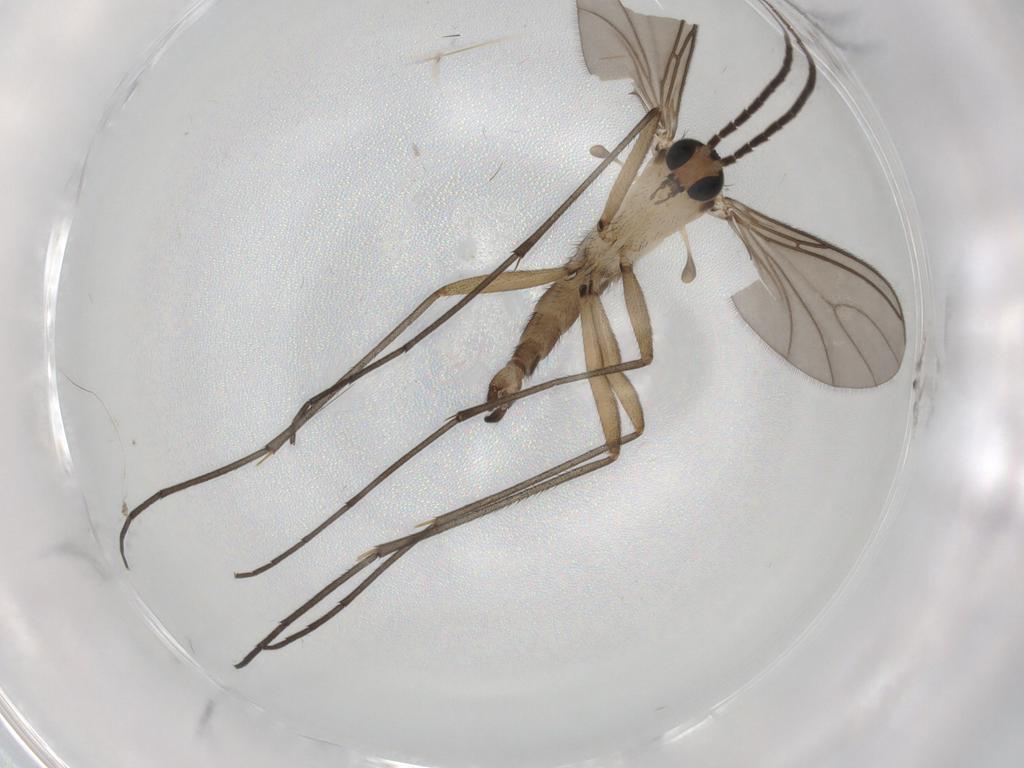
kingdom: Animalia
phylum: Arthropoda
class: Insecta
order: Diptera
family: Sciaridae
